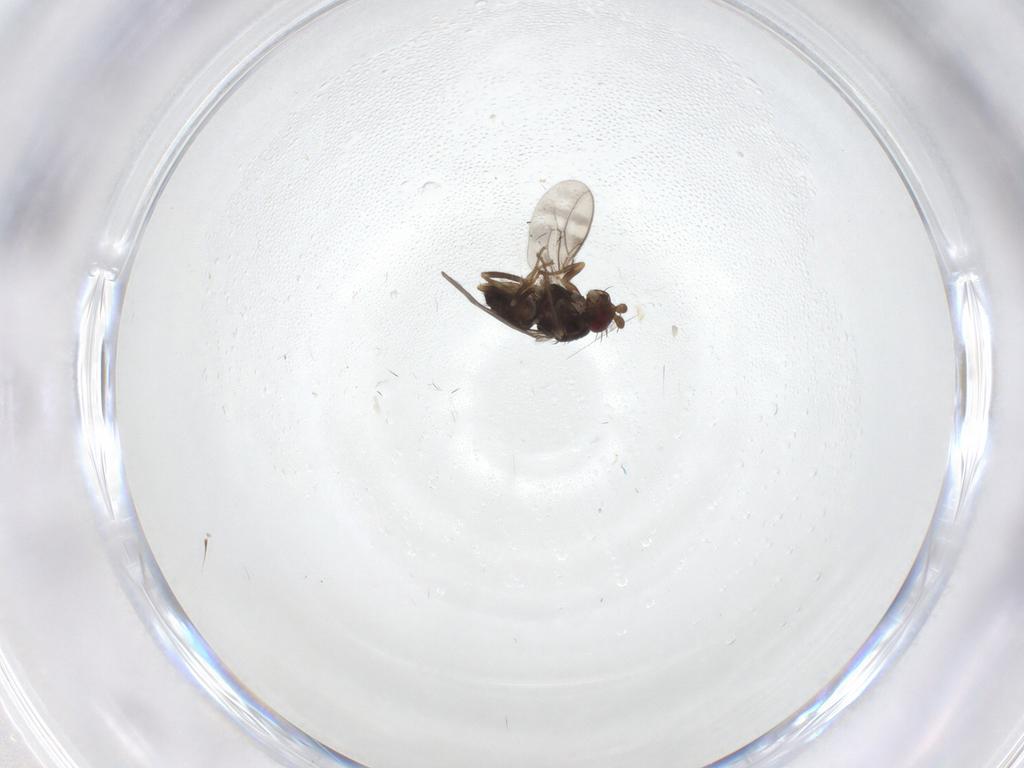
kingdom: Animalia
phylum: Arthropoda
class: Insecta
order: Diptera
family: Sphaeroceridae
